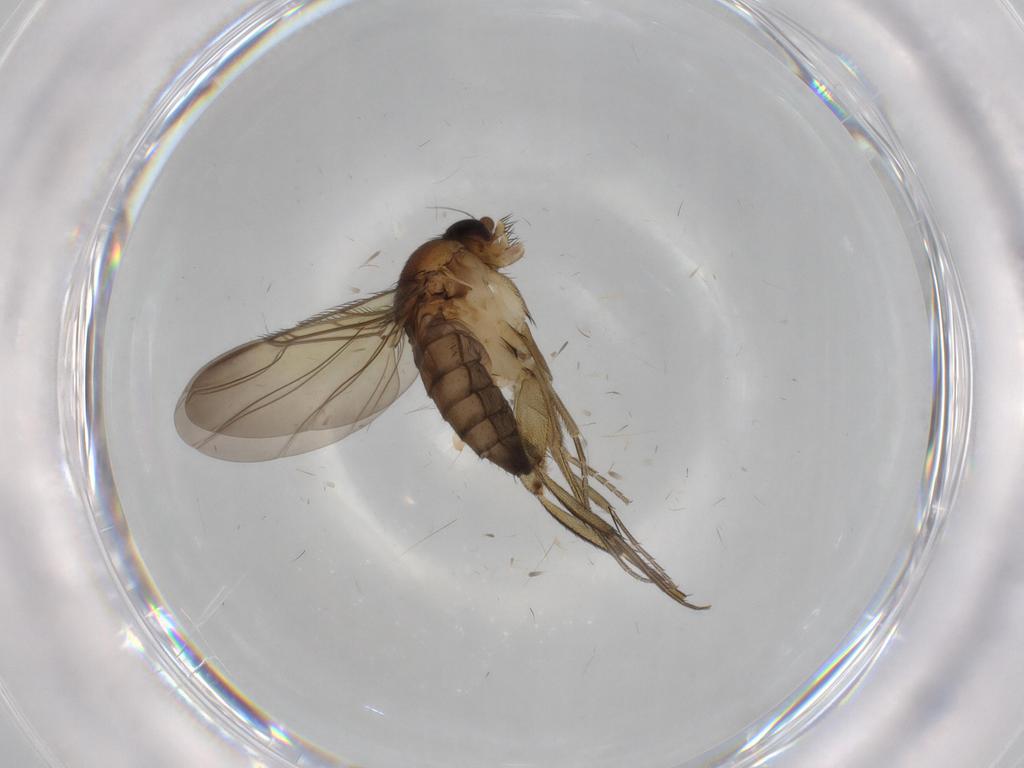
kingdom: Animalia
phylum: Arthropoda
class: Insecta
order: Diptera
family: Phoridae
